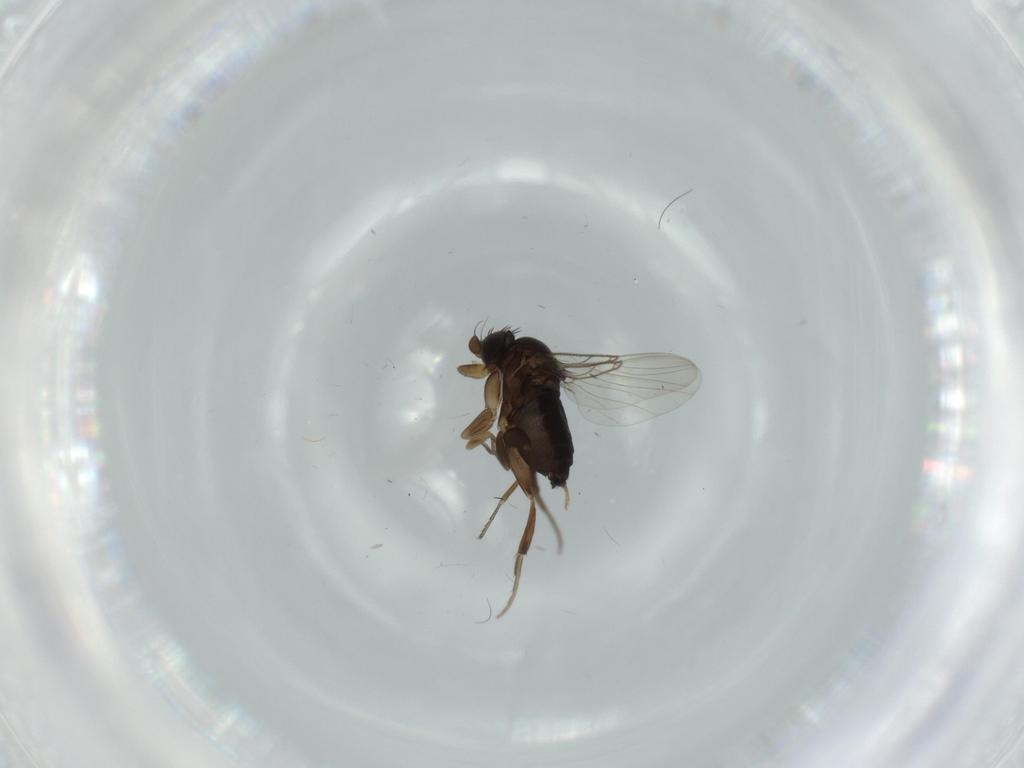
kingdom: Animalia
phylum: Arthropoda
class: Insecta
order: Diptera
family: Phoridae
